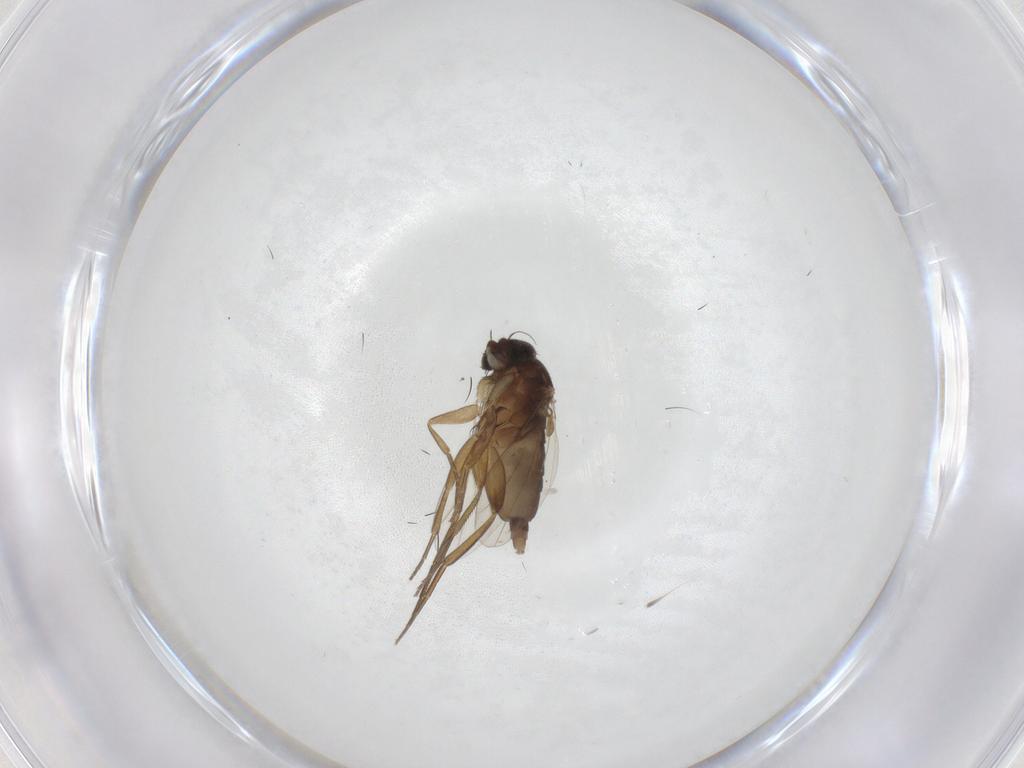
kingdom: Animalia
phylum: Arthropoda
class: Insecta
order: Diptera
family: Phoridae
